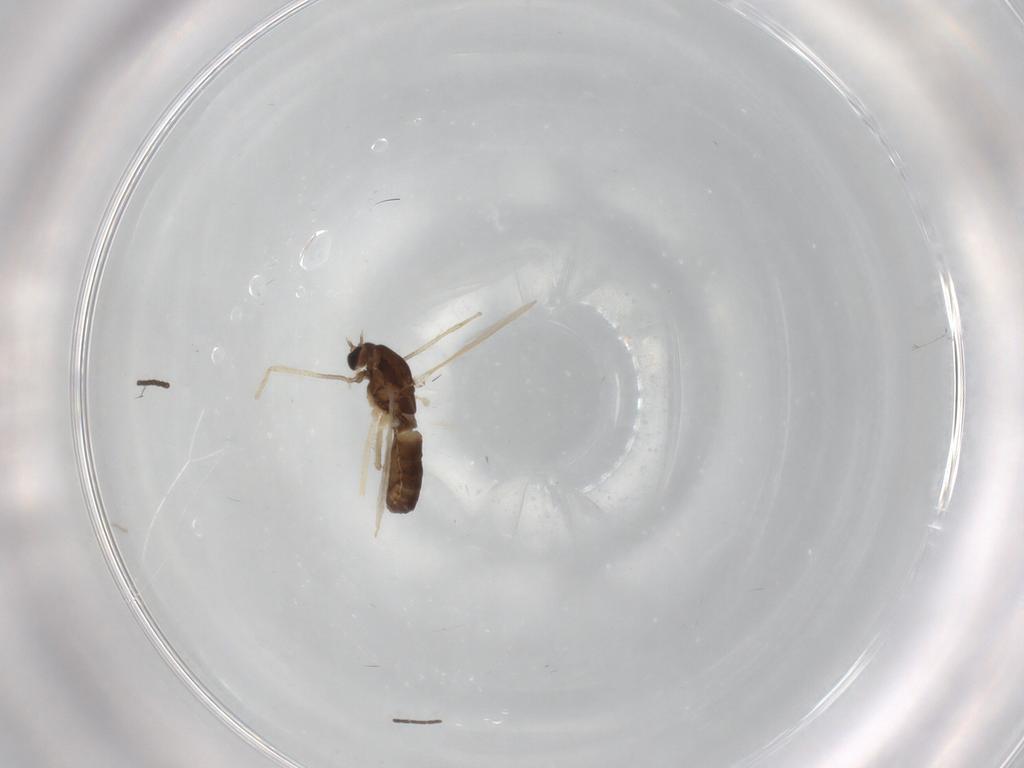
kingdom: Animalia
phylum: Arthropoda
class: Insecta
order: Diptera
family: Chironomidae
